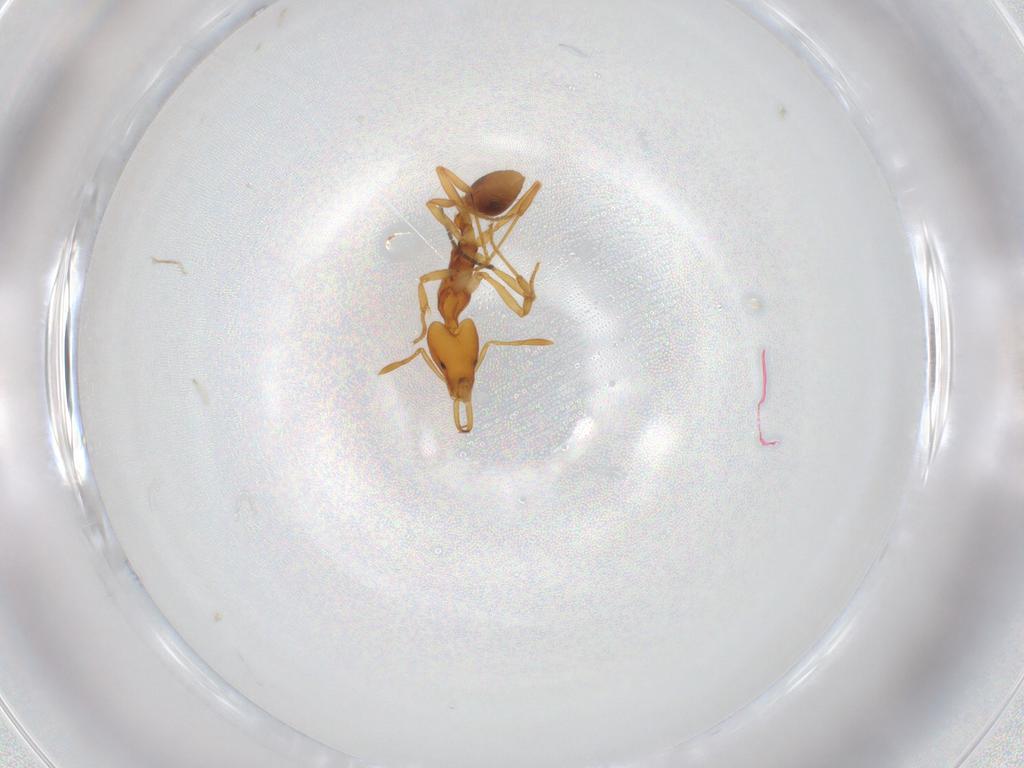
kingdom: Animalia
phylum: Arthropoda
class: Insecta
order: Hymenoptera
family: Formicidae
